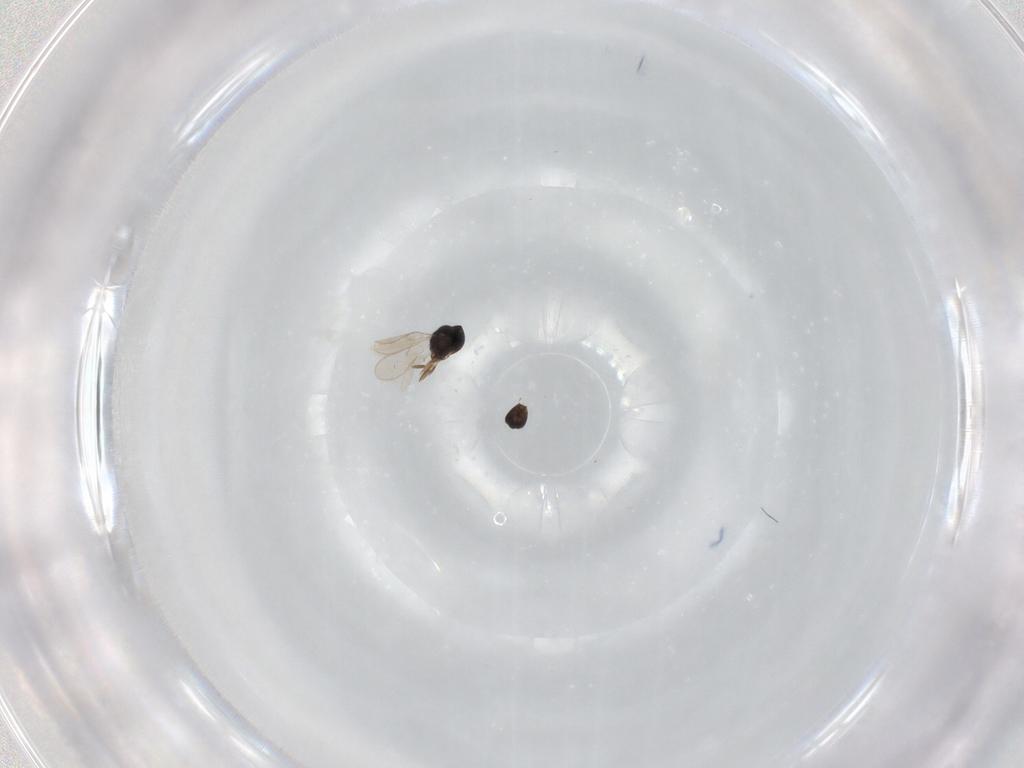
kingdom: Animalia
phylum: Arthropoda
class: Insecta
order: Hymenoptera
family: Scelionidae
